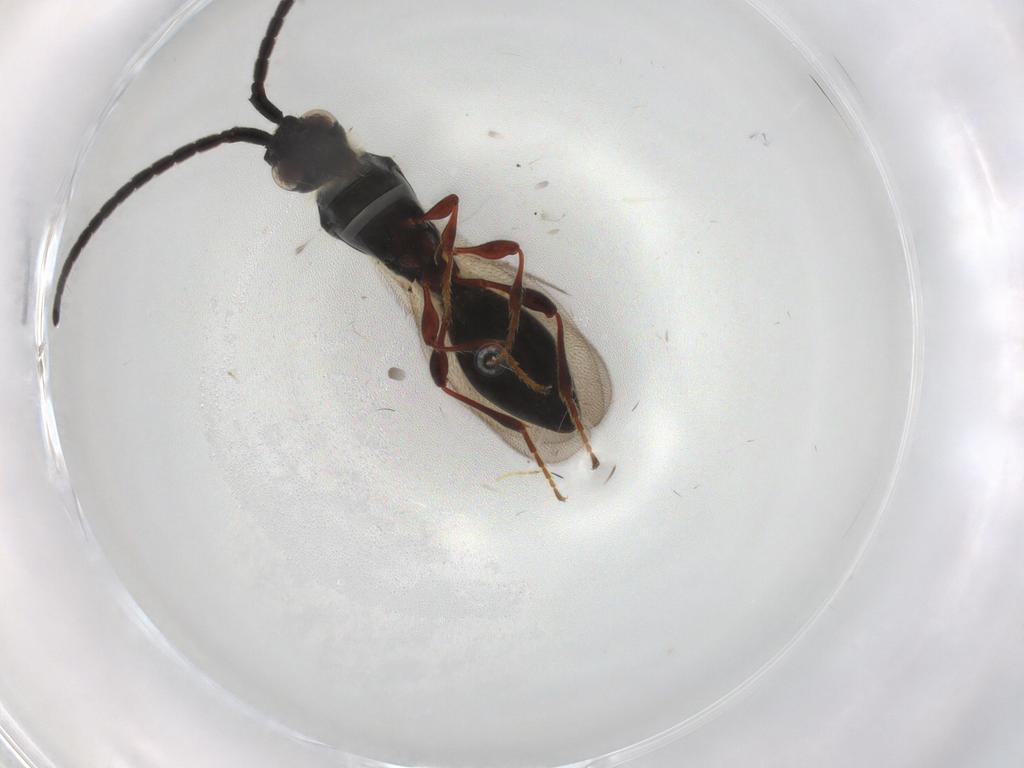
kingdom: Animalia
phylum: Arthropoda
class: Insecta
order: Hymenoptera
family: Diapriidae
